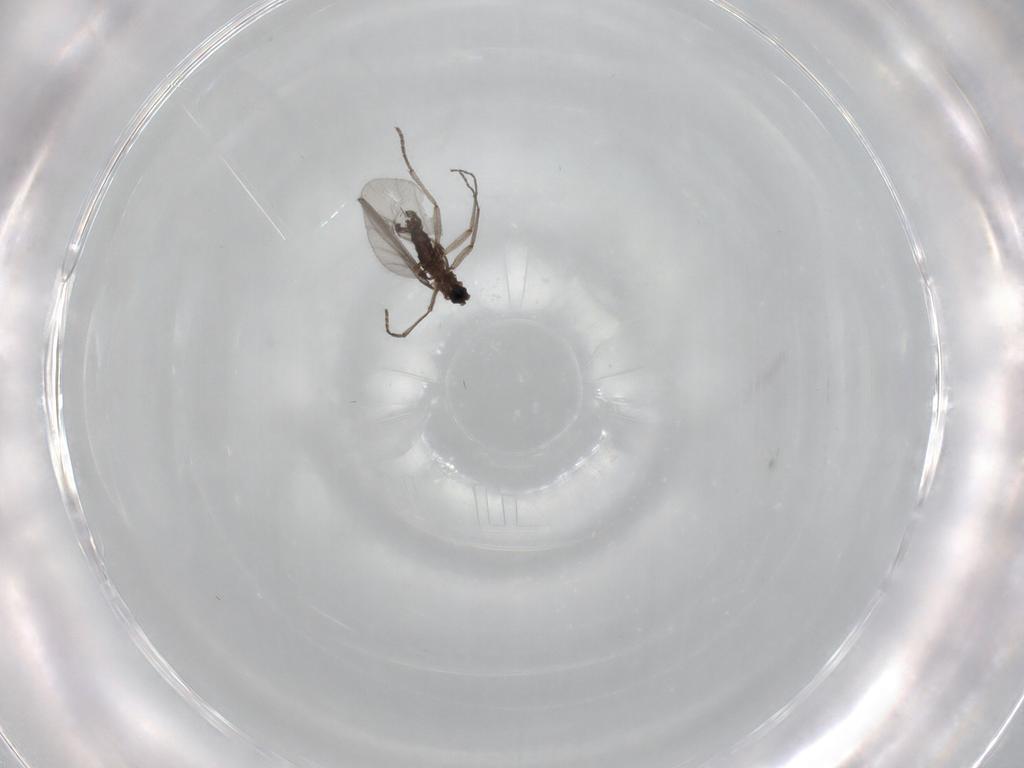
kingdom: Animalia
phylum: Arthropoda
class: Insecta
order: Diptera
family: Sciaridae
